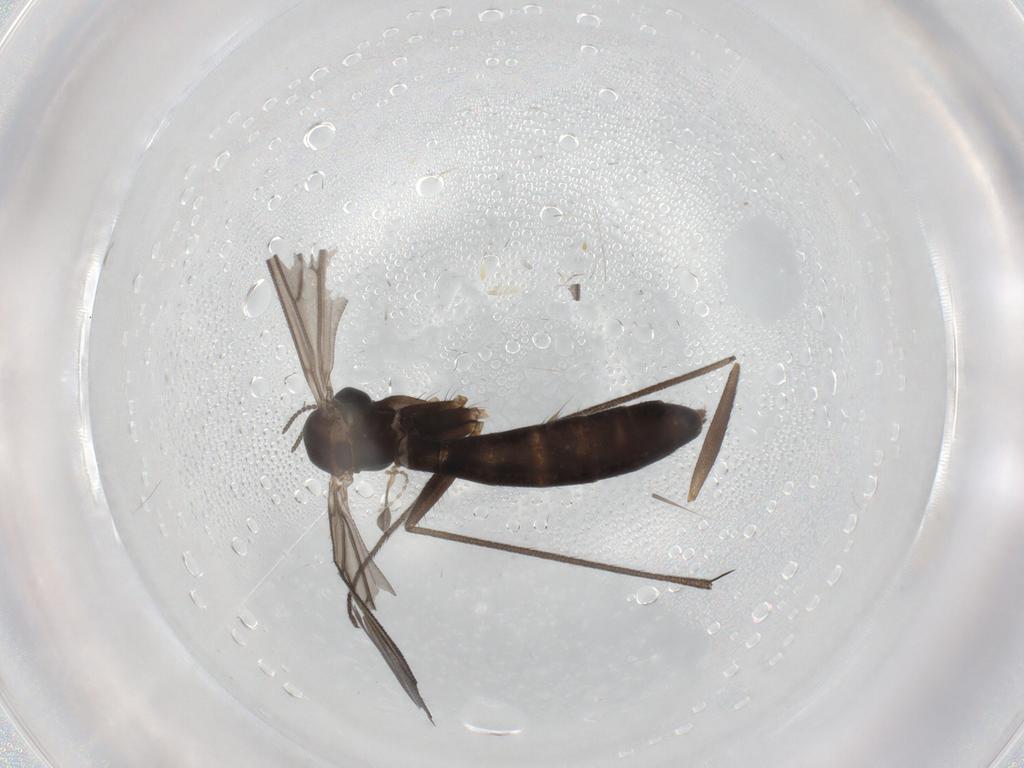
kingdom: Animalia
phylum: Arthropoda
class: Insecta
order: Diptera
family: Keroplatidae
